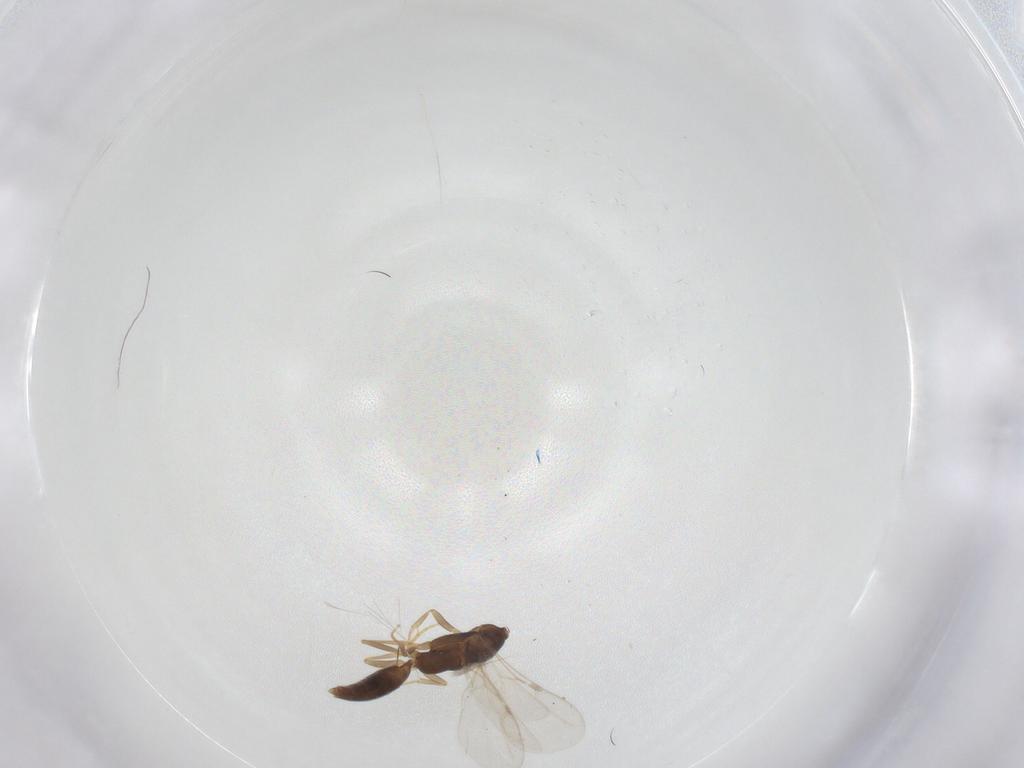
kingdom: Animalia
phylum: Arthropoda
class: Insecta
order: Hymenoptera
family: Bethylidae
